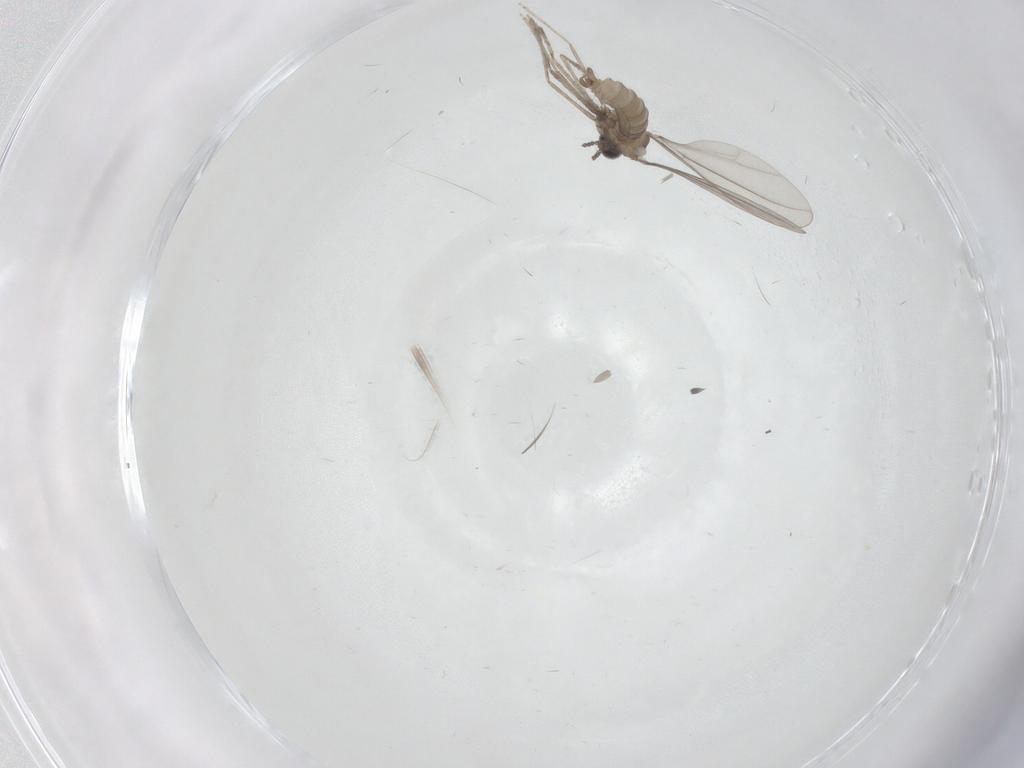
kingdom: Animalia
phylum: Arthropoda
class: Insecta
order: Diptera
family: Cecidomyiidae
